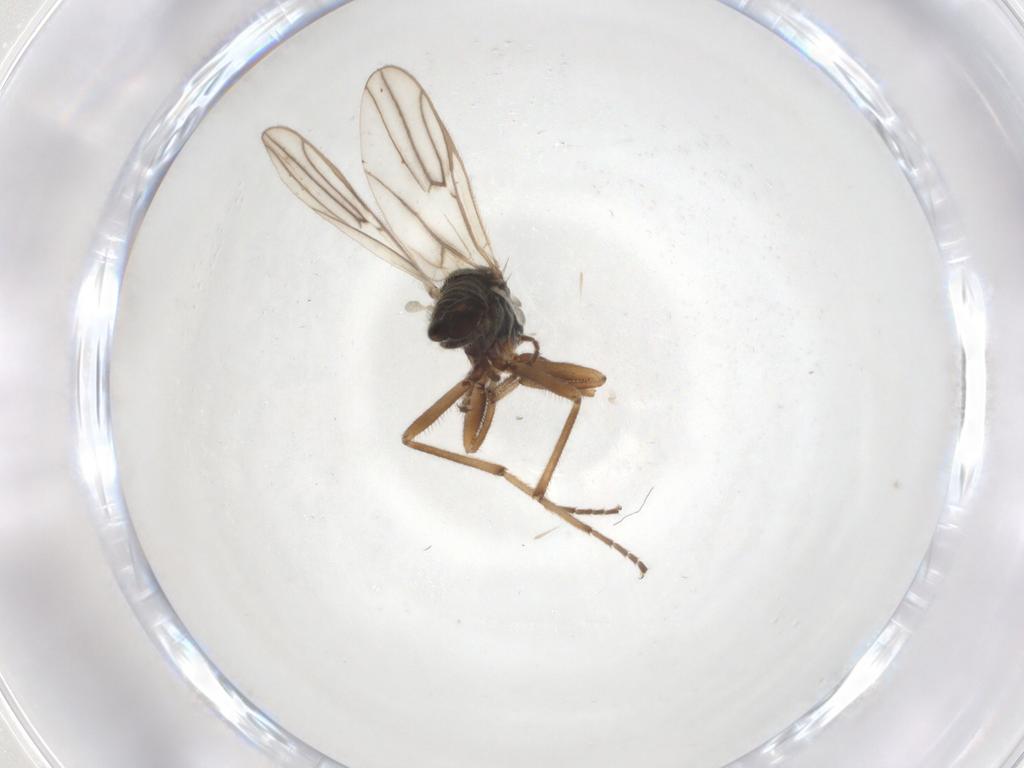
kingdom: Animalia
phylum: Arthropoda
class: Insecta
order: Diptera
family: Hybotidae
